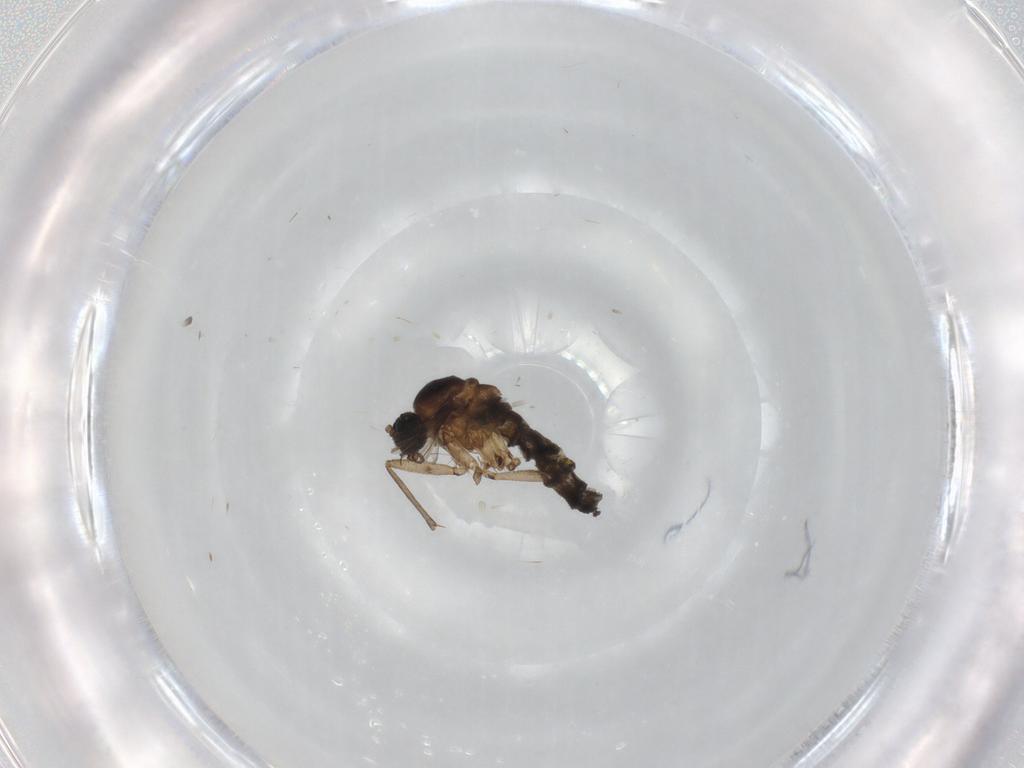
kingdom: Animalia
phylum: Arthropoda
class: Insecta
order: Diptera
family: Sciaridae
